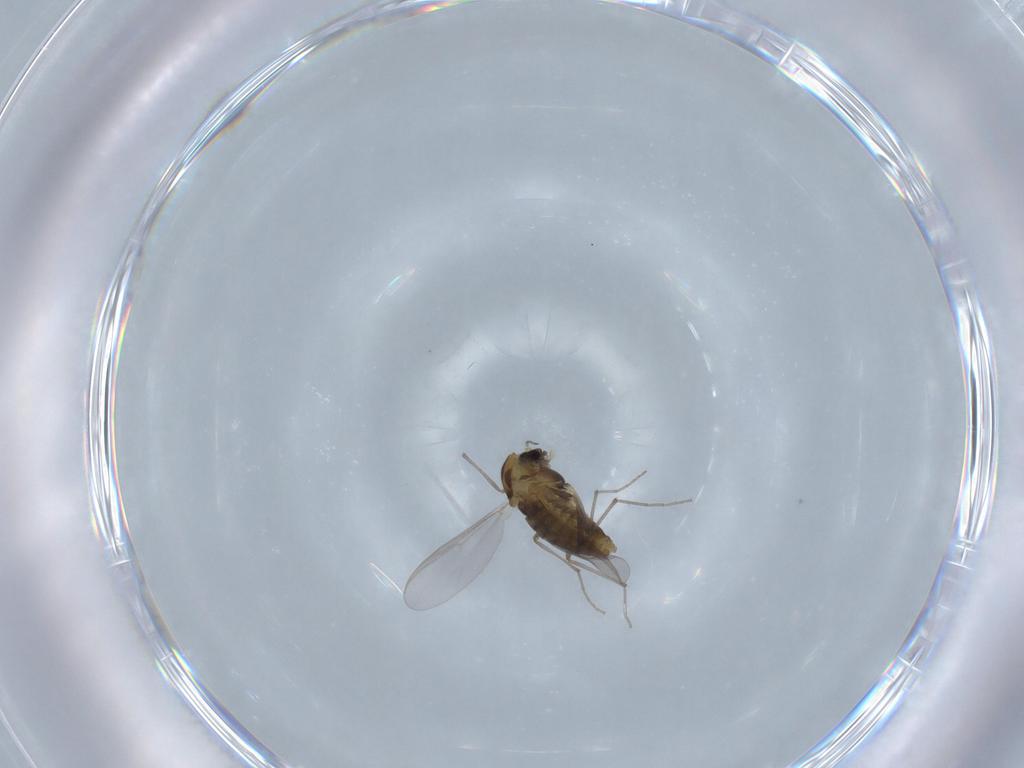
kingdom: Animalia
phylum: Arthropoda
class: Insecta
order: Diptera
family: Chironomidae
